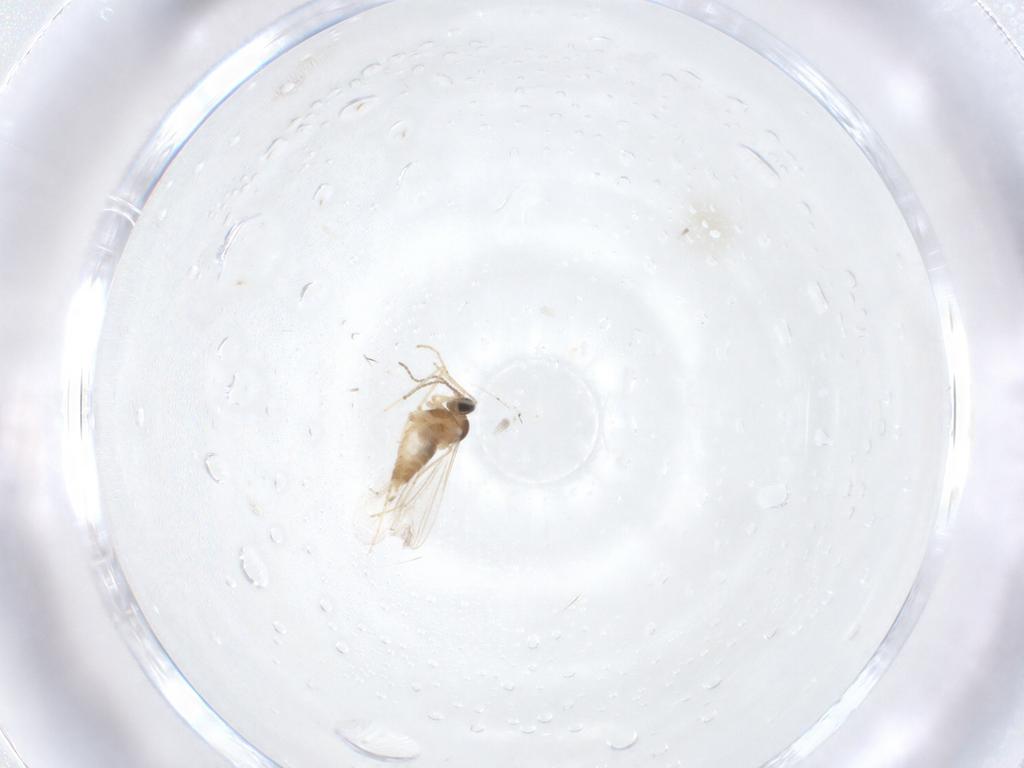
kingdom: Animalia
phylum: Arthropoda
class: Insecta
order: Diptera
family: Cecidomyiidae
